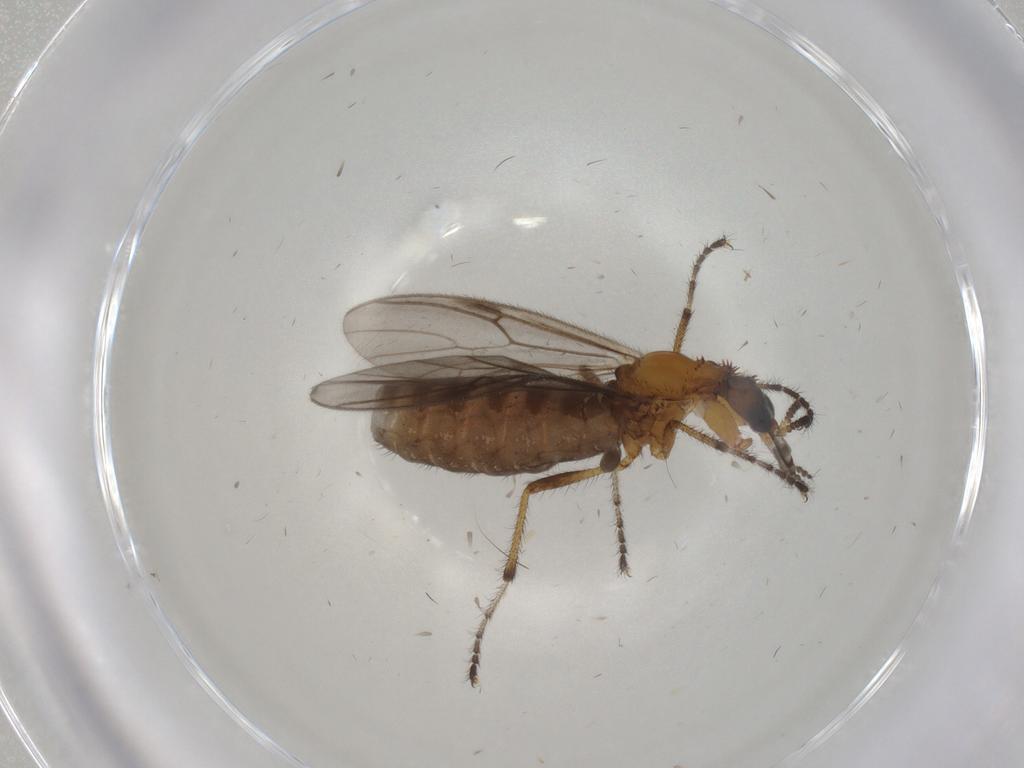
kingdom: Animalia
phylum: Arthropoda
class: Insecta
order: Diptera
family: Bibionidae
